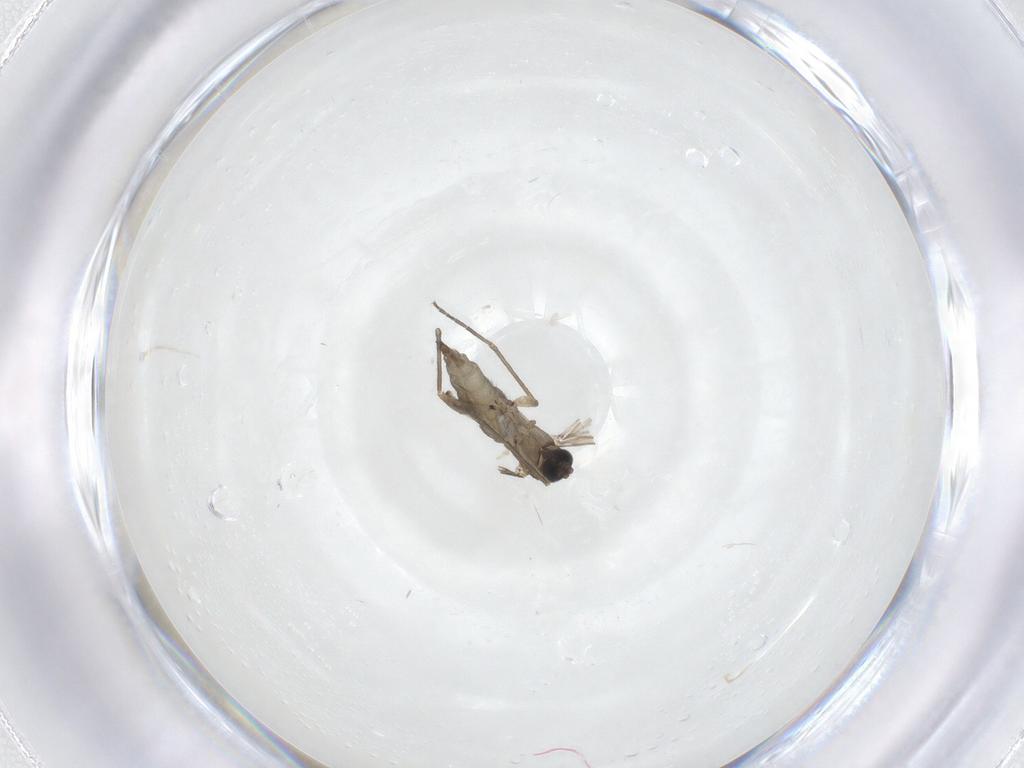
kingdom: Animalia
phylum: Arthropoda
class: Insecta
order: Diptera
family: Sciaridae
